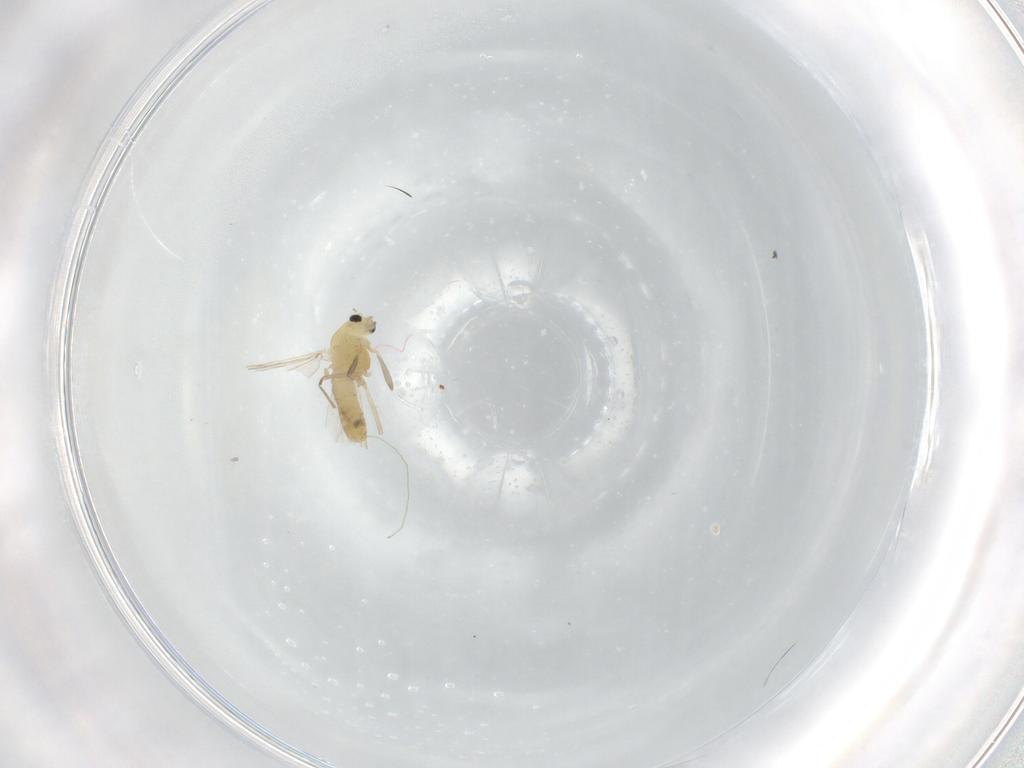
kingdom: Animalia
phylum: Arthropoda
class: Insecta
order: Diptera
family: Chironomidae
